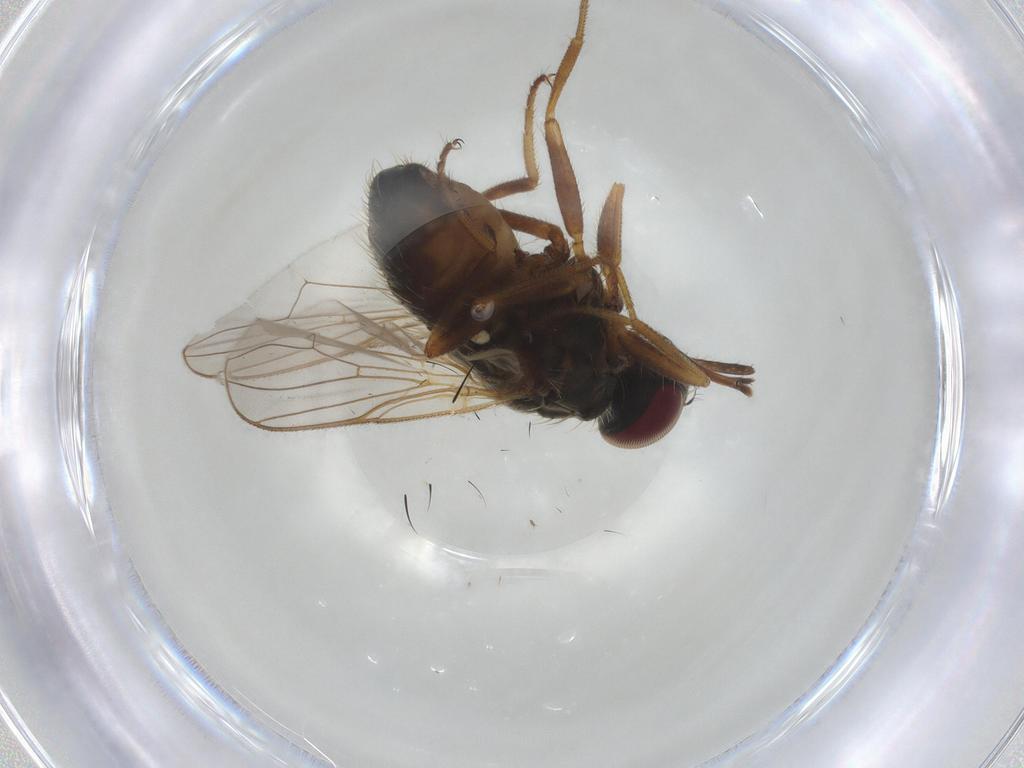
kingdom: Animalia
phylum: Arthropoda
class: Insecta
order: Diptera
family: Muscidae
